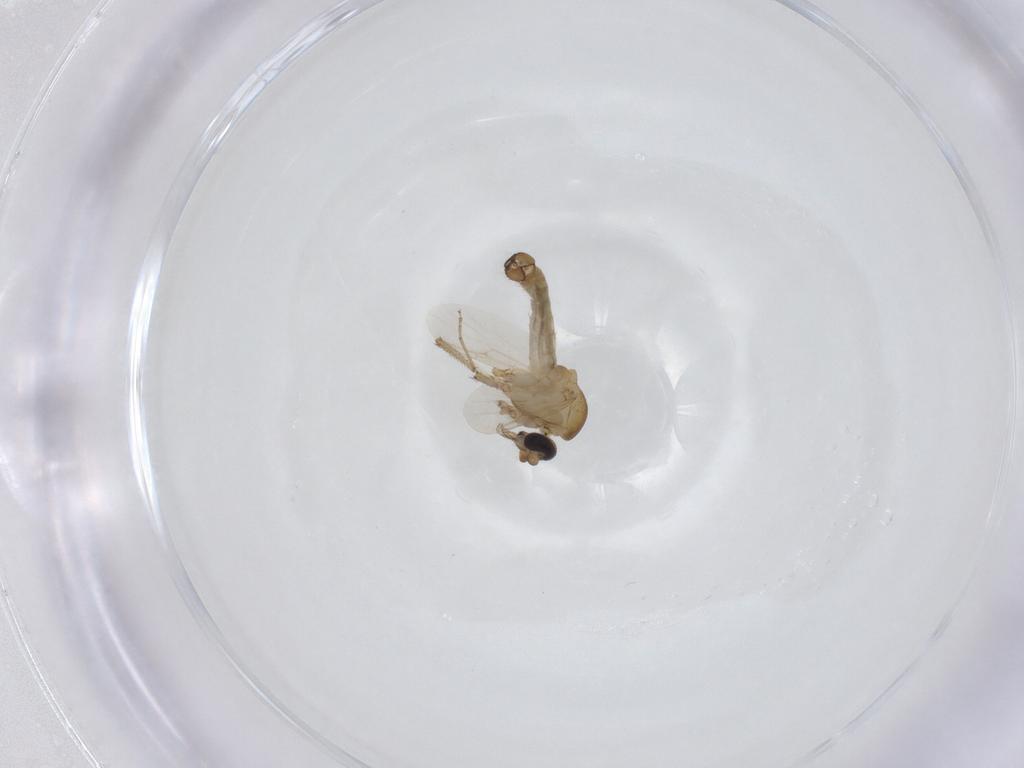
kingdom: Animalia
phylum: Arthropoda
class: Insecta
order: Diptera
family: Ceratopogonidae
